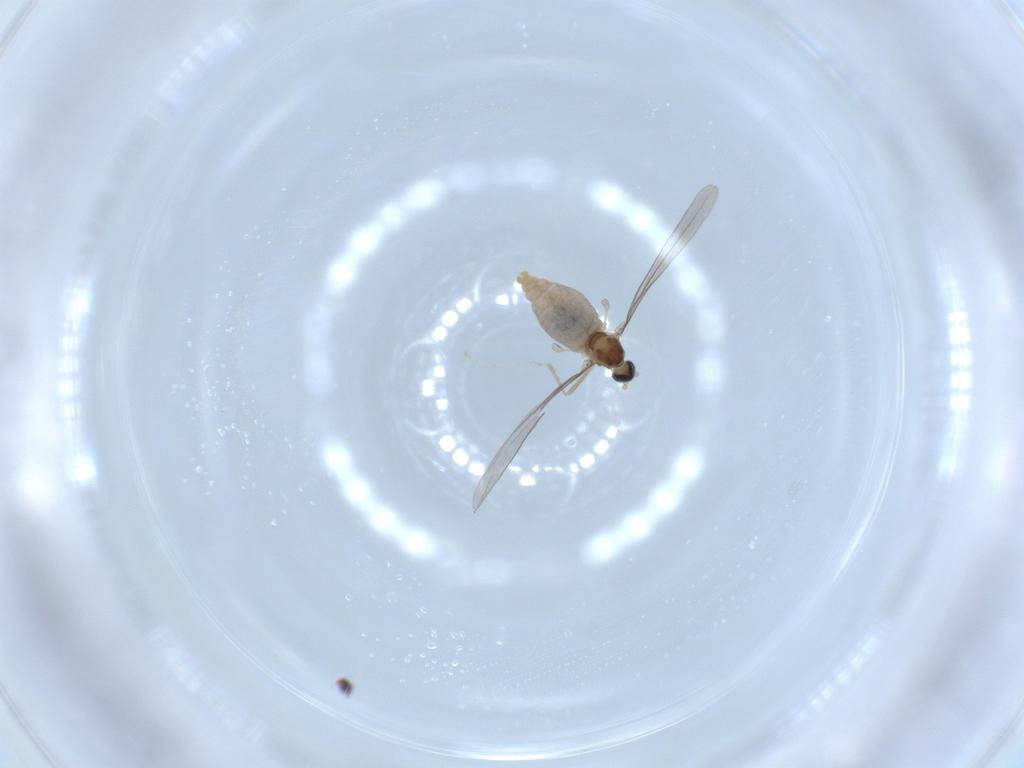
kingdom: Animalia
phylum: Arthropoda
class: Insecta
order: Diptera
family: Cecidomyiidae
